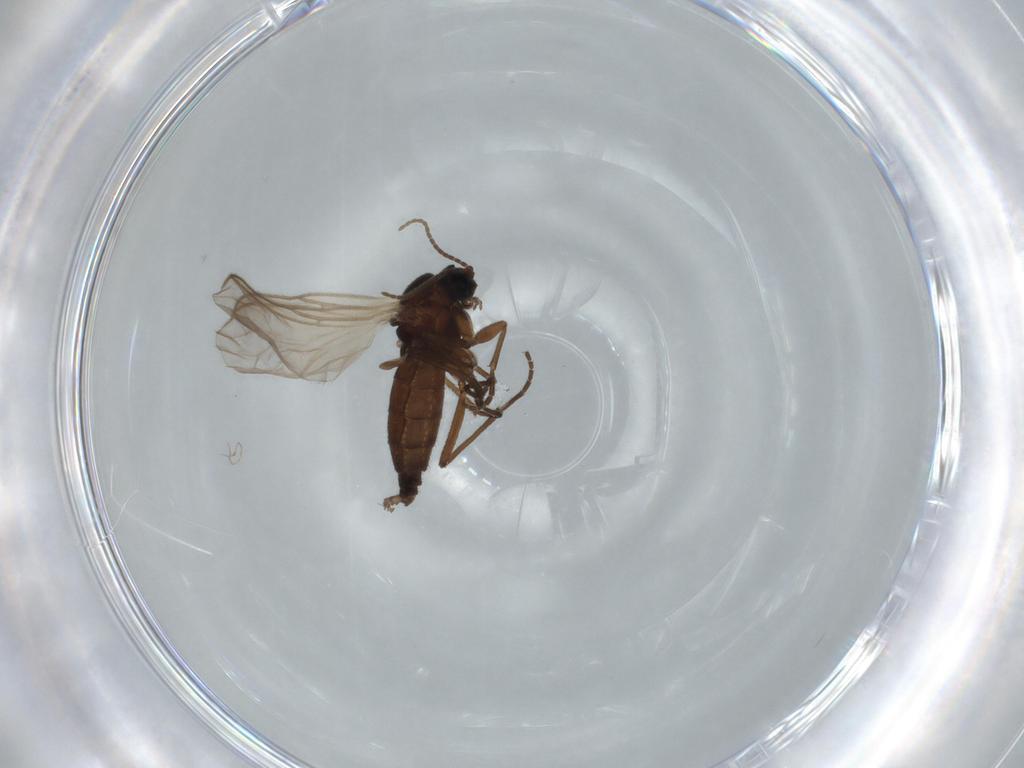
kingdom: Animalia
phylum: Arthropoda
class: Insecta
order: Diptera
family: Sciaridae
